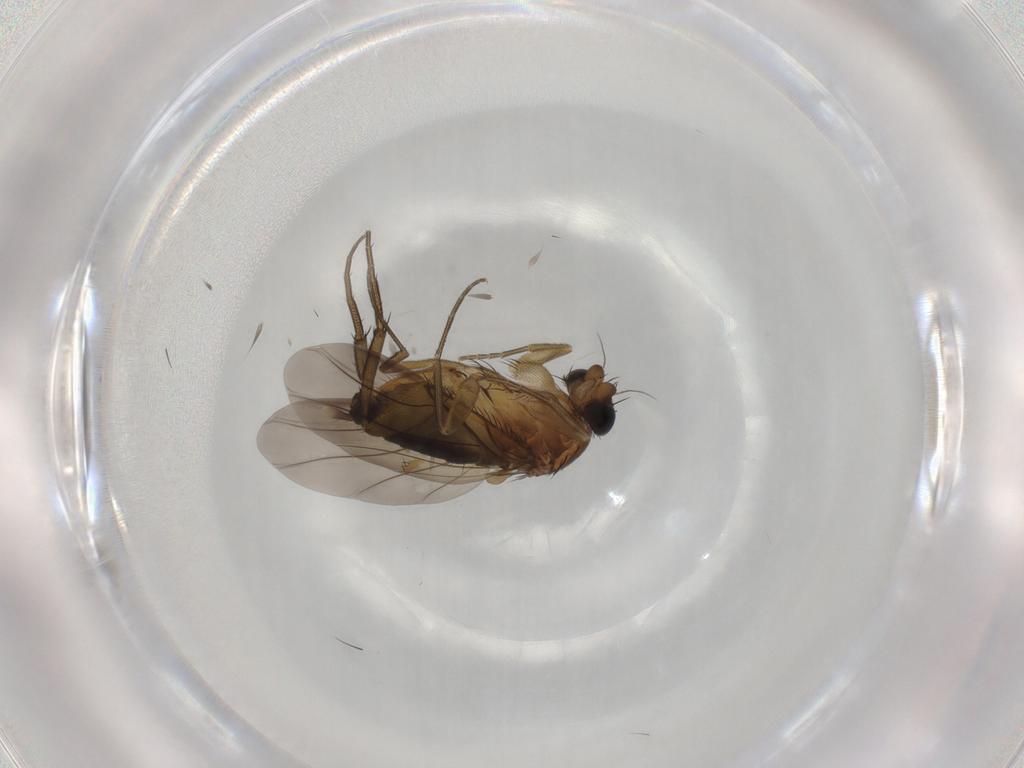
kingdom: Animalia
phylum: Arthropoda
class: Insecta
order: Diptera
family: Phoridae
